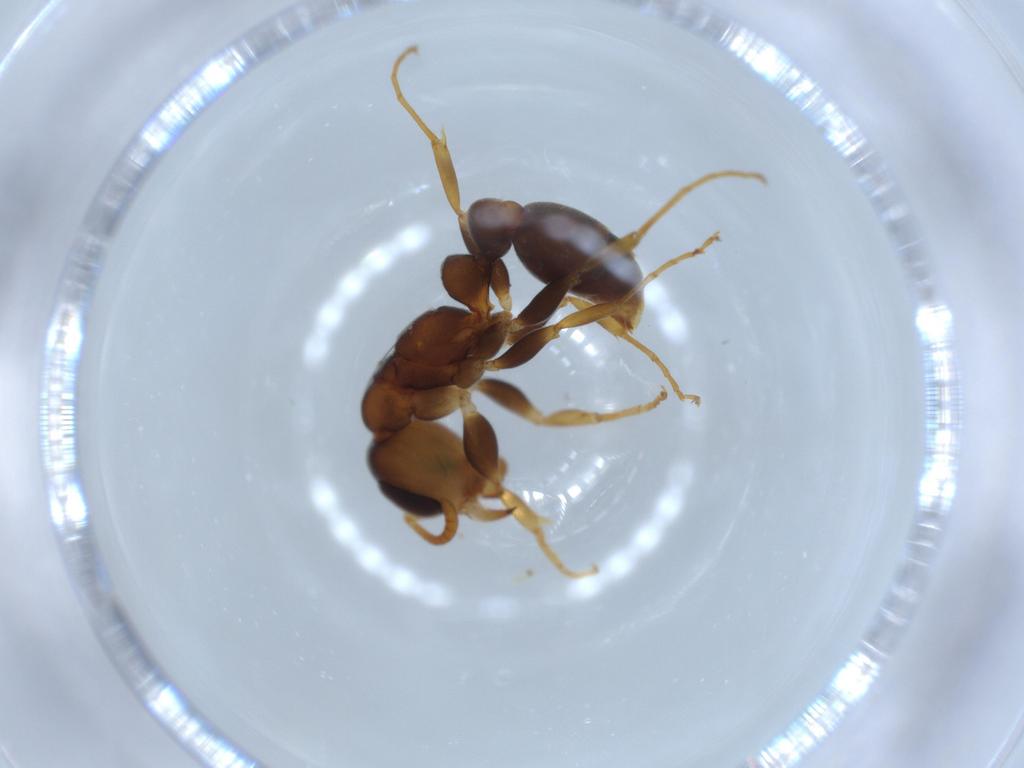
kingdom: Animalia
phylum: Arthropoda
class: Insecta
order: Hymenoptera
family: Formicidae
